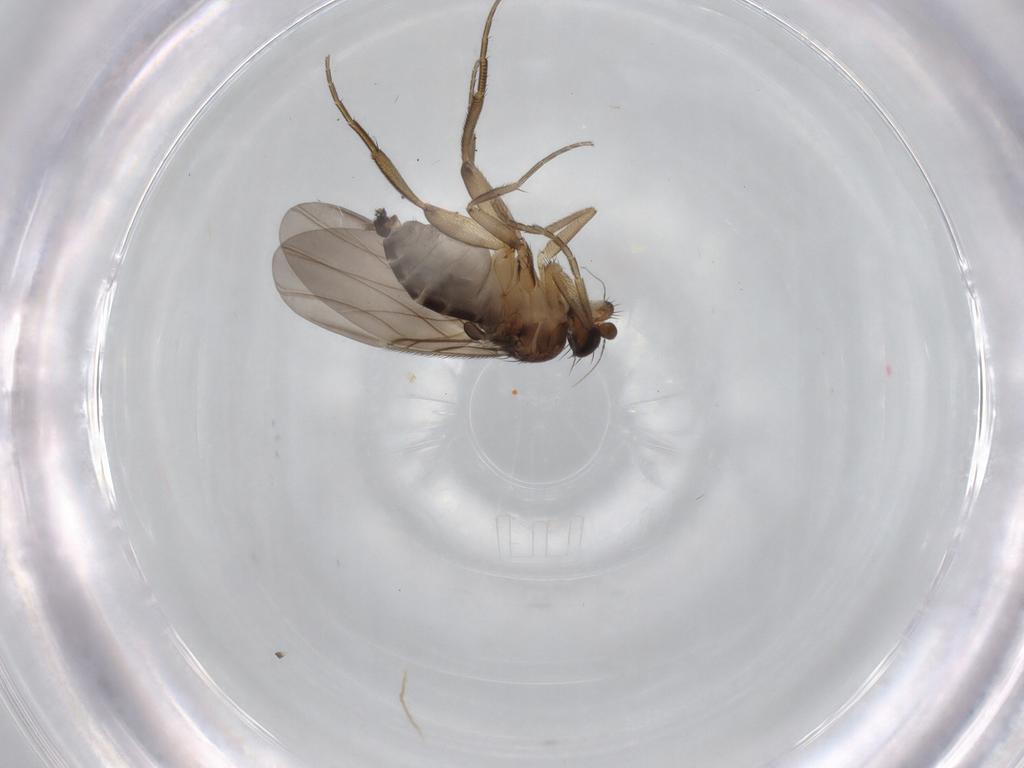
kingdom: Animalia
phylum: Arthropoda
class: Insecta
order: Diptera
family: Phoridae
